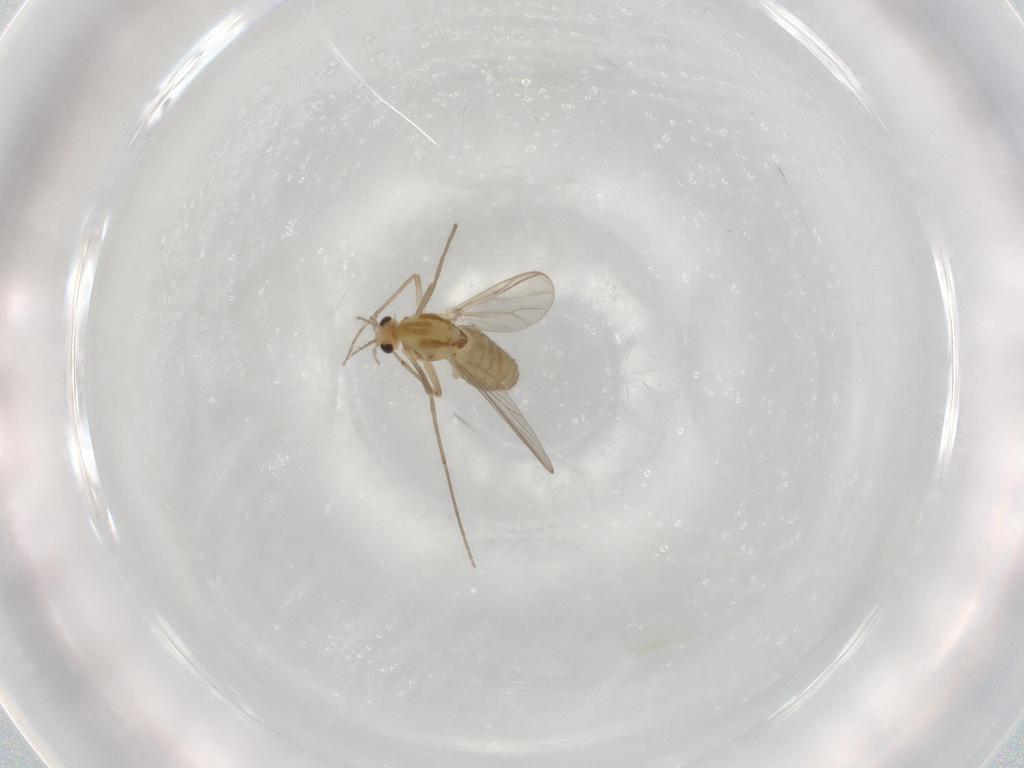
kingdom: Animalia
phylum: Arthropoda
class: Insecta
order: Diptera
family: Chironomidae
